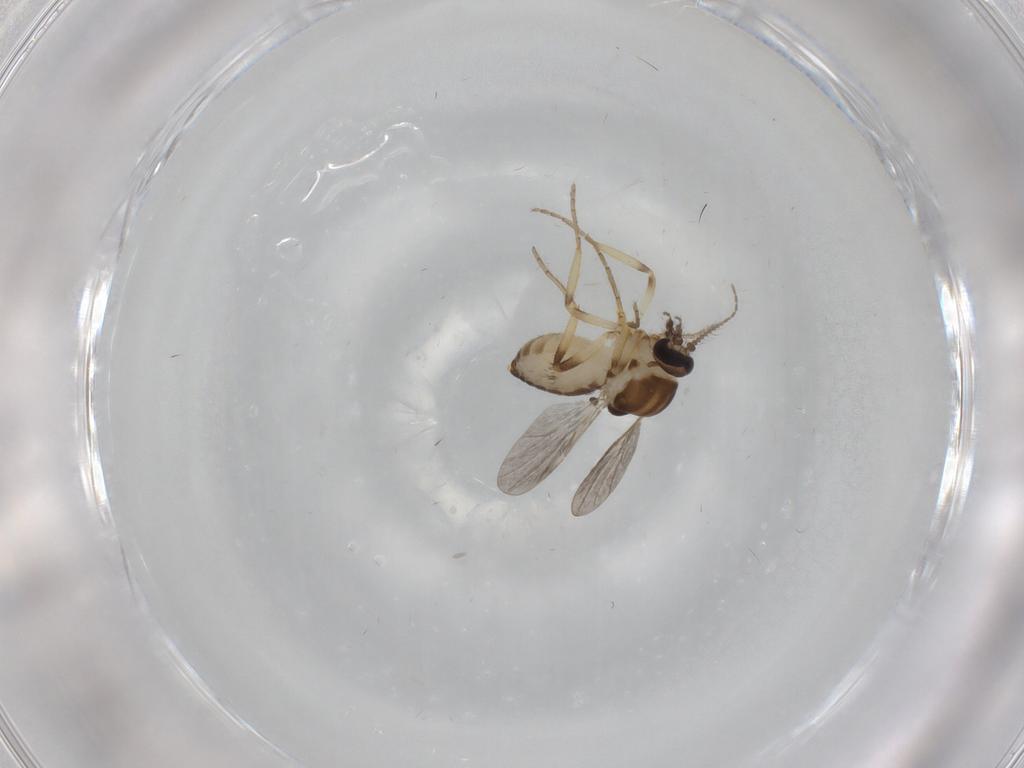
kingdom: Animalia
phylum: Arthropoda
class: Insecta
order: Diptera
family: Ceratopogonidae
